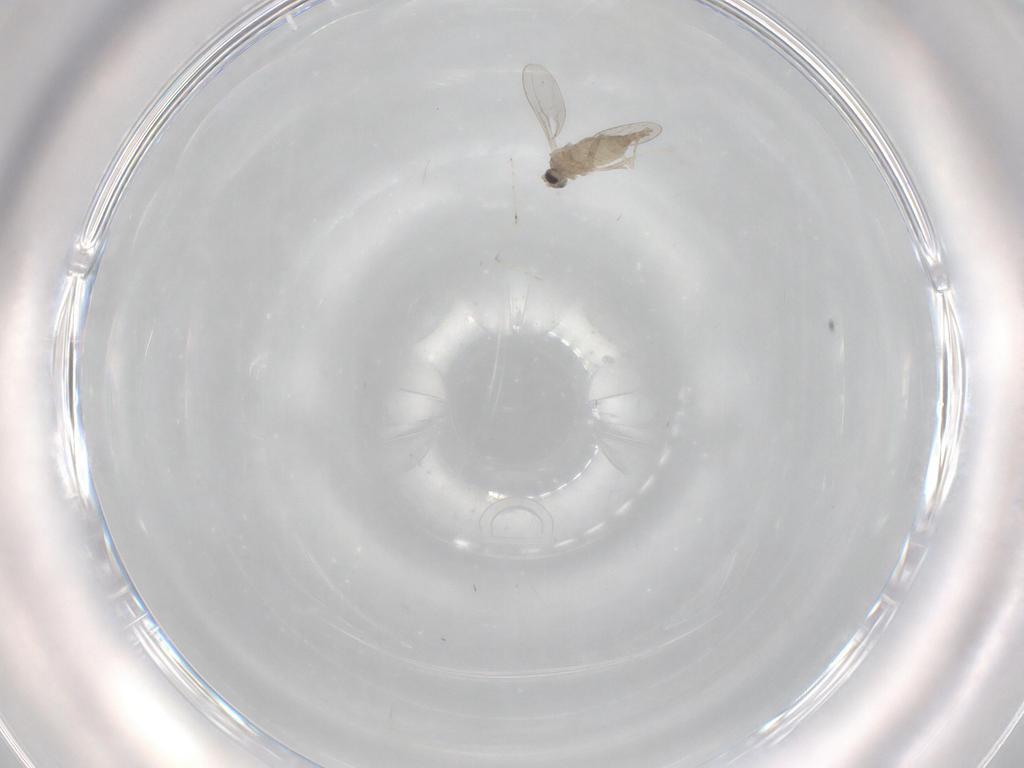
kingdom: Animalia
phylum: Arthropoda
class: Insecta
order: Diptera
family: Cecidomyiidae
